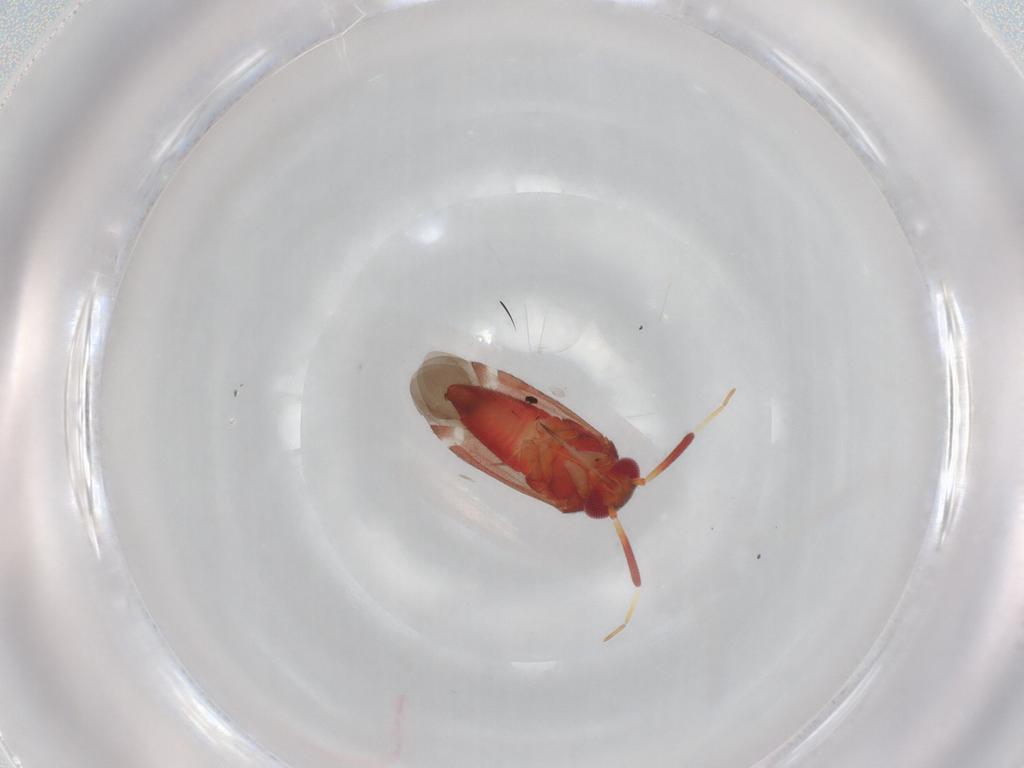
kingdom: Animalia
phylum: Arthropoda
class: Insecta
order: Hemiptera
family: Miridae
